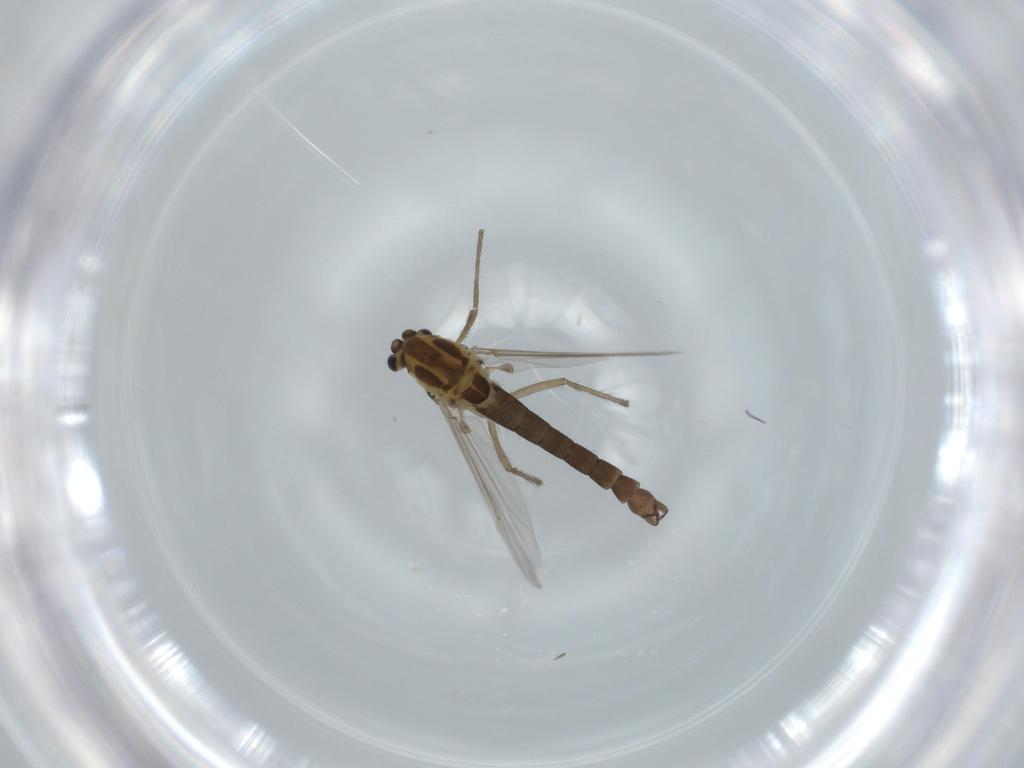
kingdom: Animalia
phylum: Arthropoda
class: Insecta
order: Diptera
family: Chironomidae
